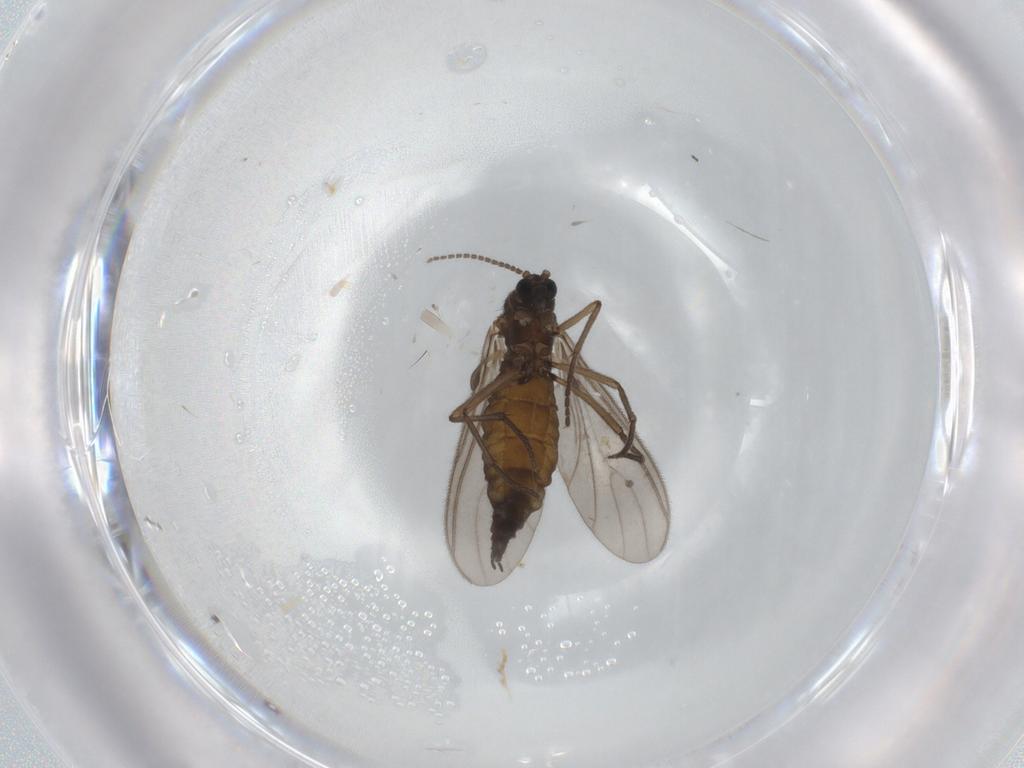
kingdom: Animalia
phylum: Arthropoda
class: Insecta
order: Diptera
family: Sciaridae
